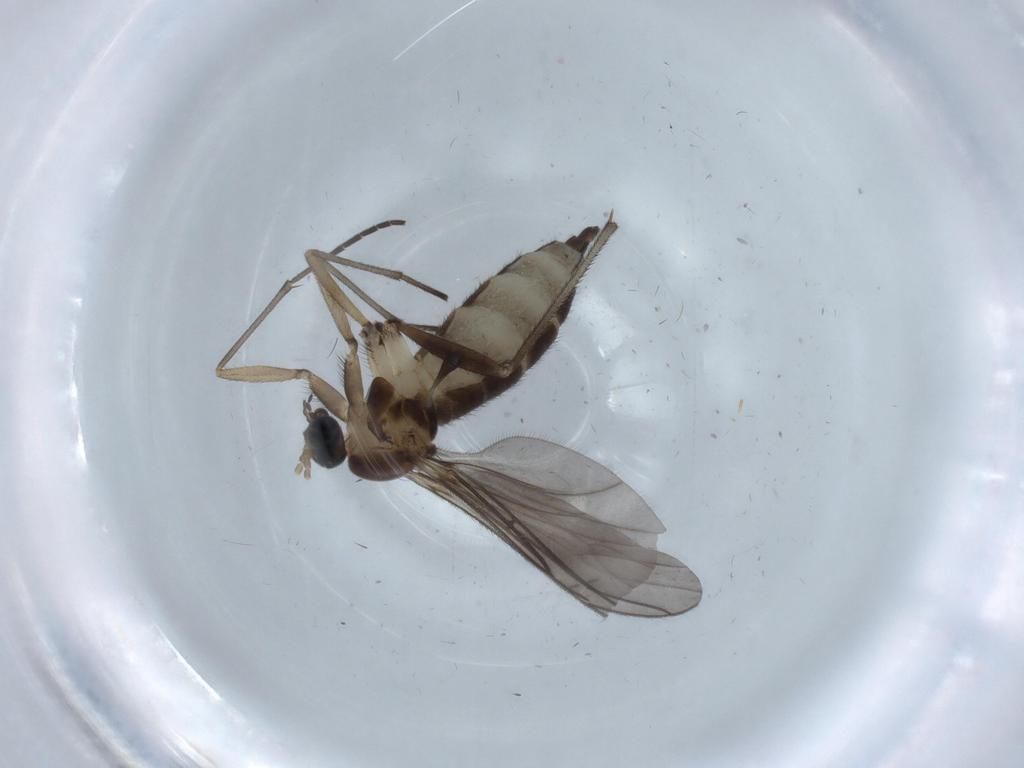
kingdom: Animalia
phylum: Arthropoda
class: Insecta
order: Diptera
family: Sciaridae
